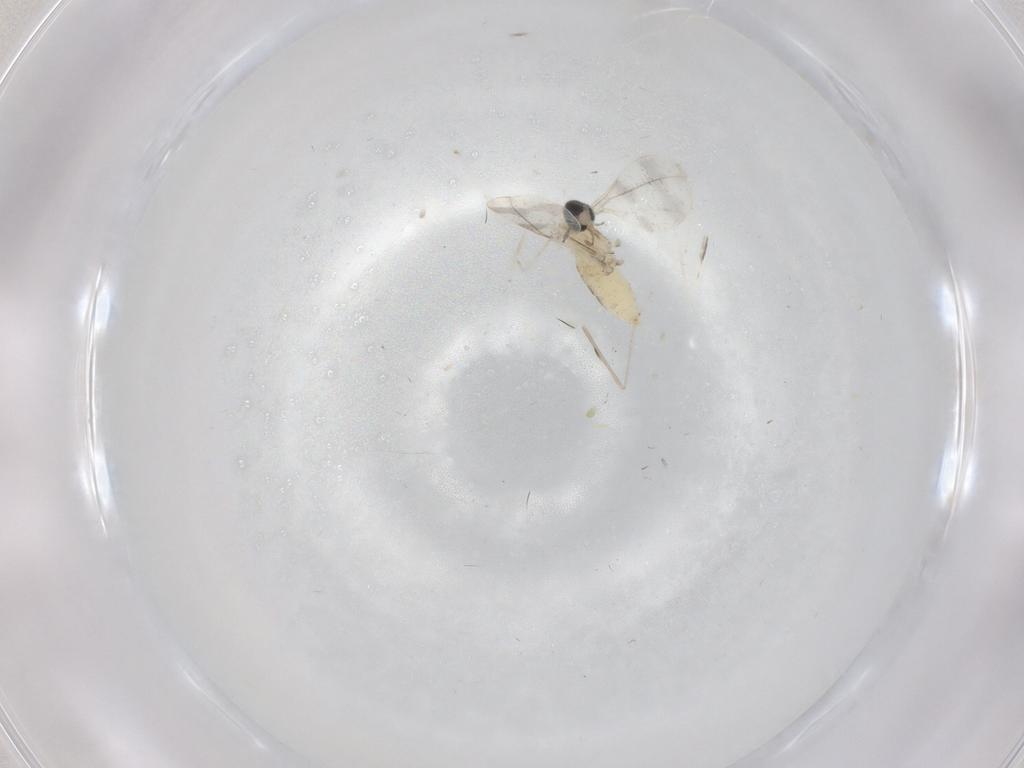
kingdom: Animalia
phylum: Arthropoda
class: Insecta
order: Diptera
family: Cecidomyiidae
